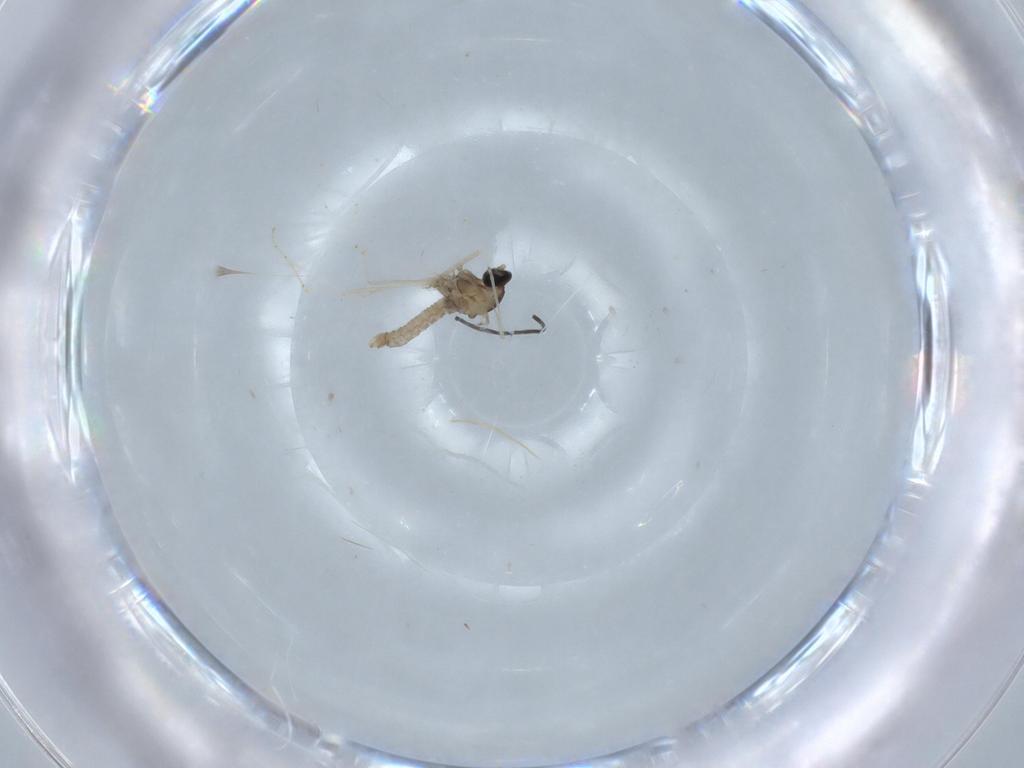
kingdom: Animalia
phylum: Arthropoda
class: Insecta
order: Diptera
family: Cecidomyiidae
